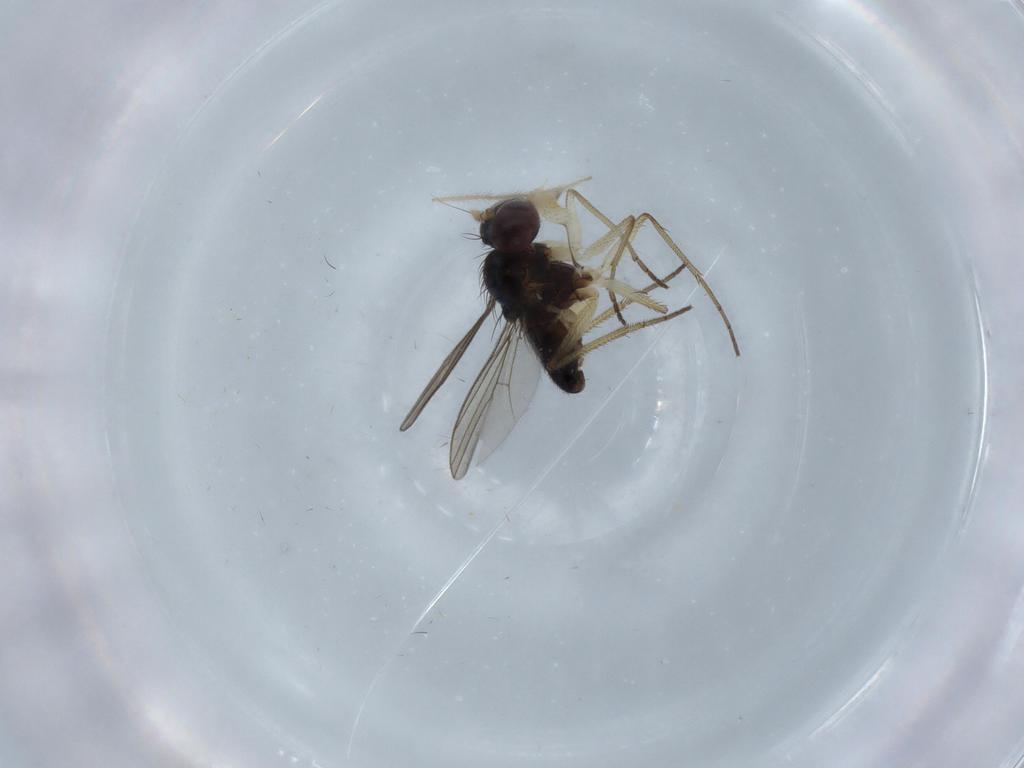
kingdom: Animalia
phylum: Arthropoda
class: Insecta
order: Diptera
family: Phoridae
